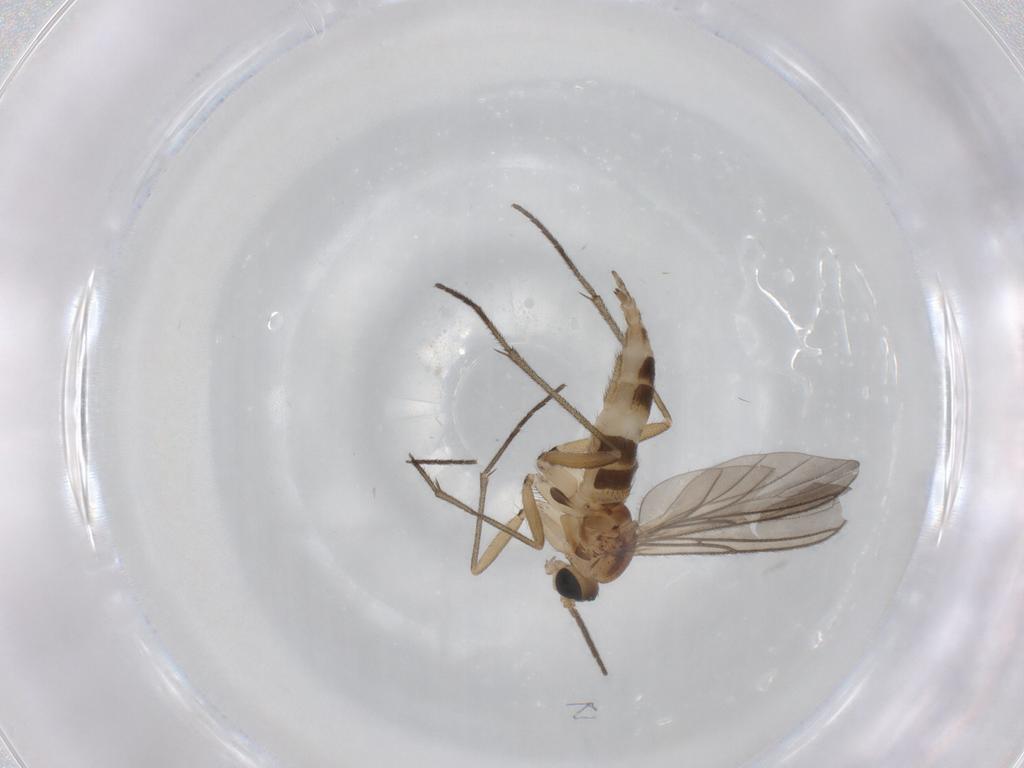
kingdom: Animalia
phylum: Arthropoda
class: Insecta
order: Diptera
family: Sciaridae
